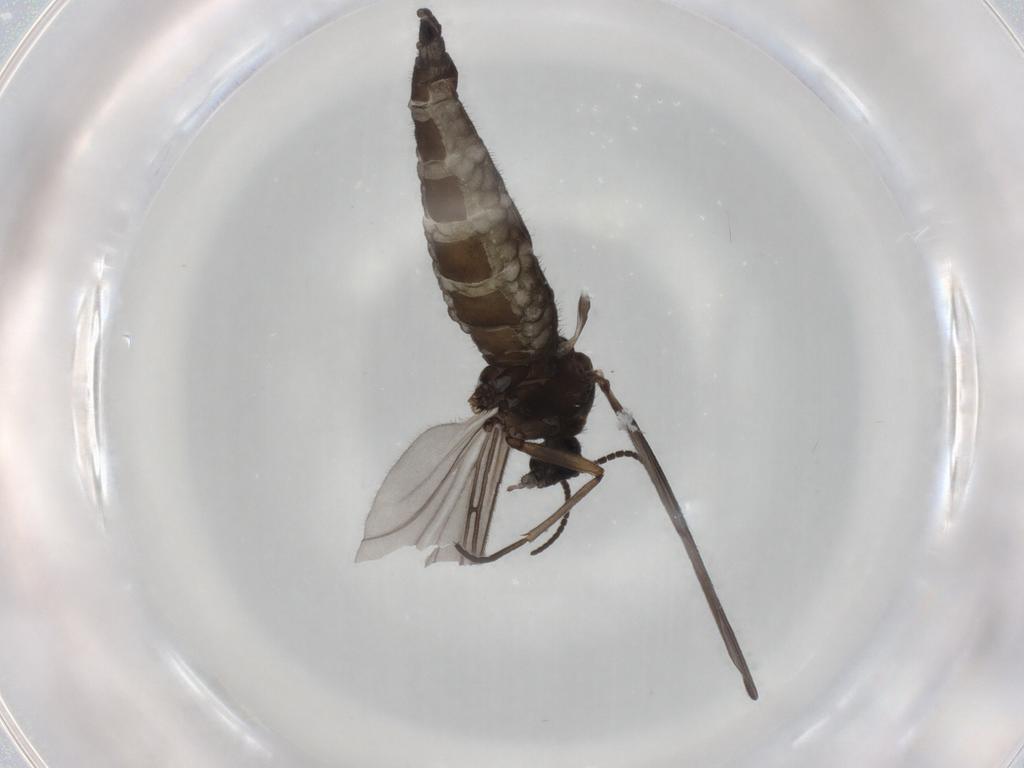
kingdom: Animalia
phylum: Arthropoda
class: Insecta
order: Diptera
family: Sciaridae
